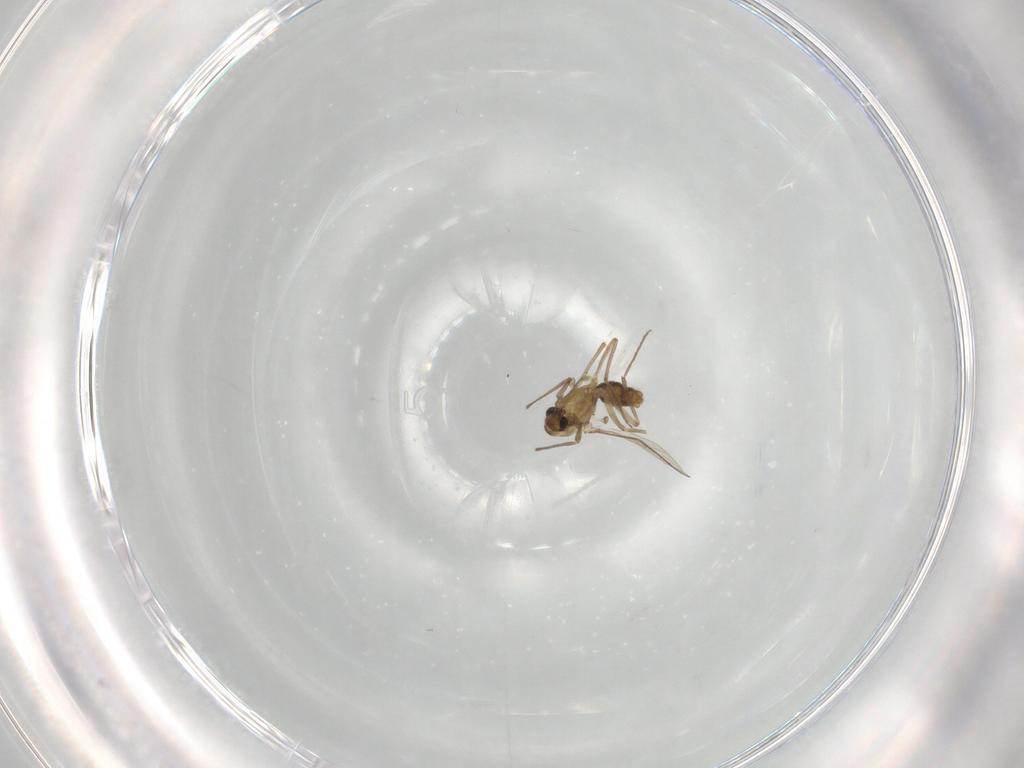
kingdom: Animalia
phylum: Arthropoda
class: Insecta
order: Diptera
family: Chironomidae
